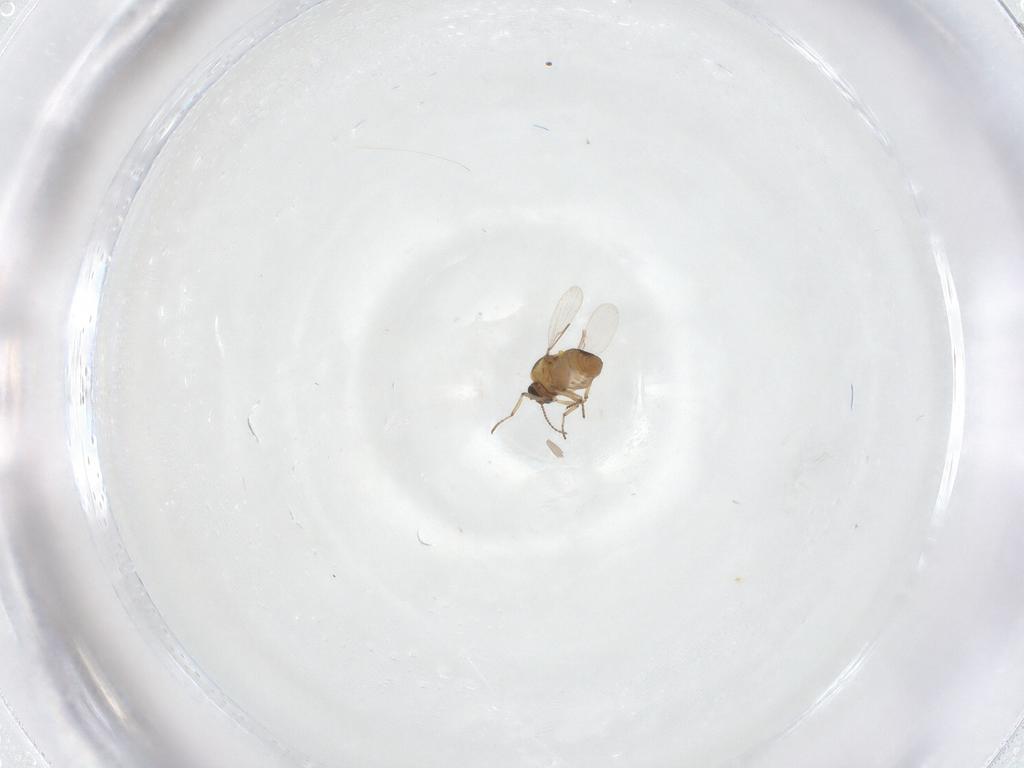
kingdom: Animalia
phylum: Arthropoda
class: Insecta
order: Diptera
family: Ceratopogonidae
